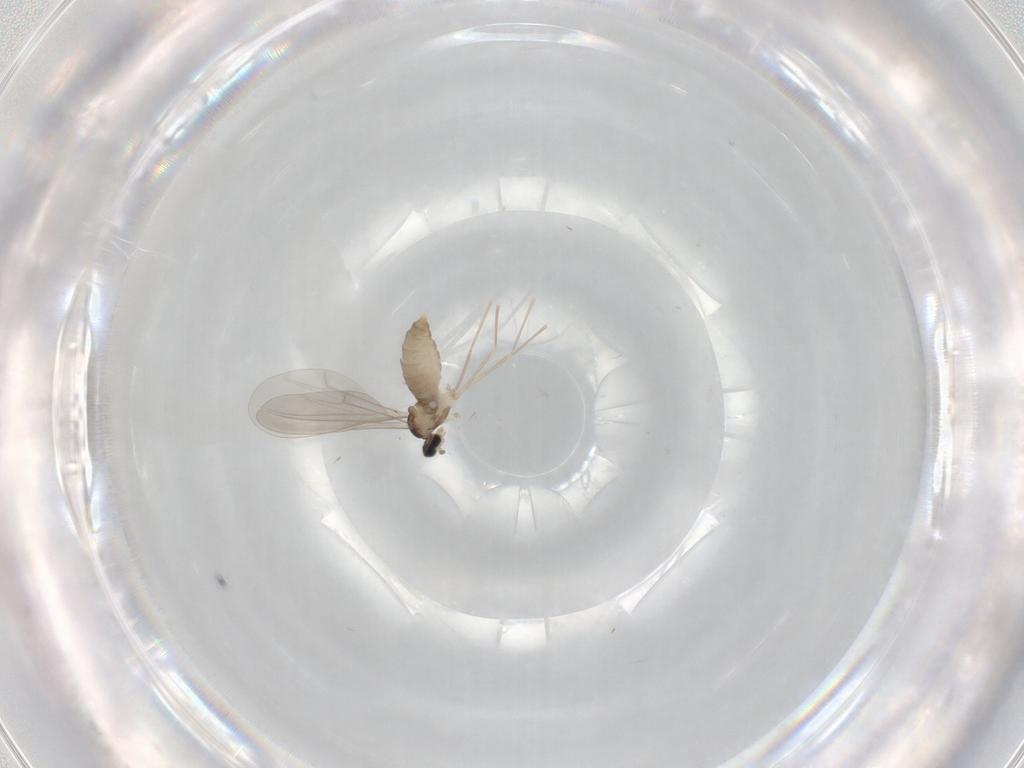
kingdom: Animalia
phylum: Arthropoda
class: Insecta
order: Diptera
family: Cecidomyiidae
